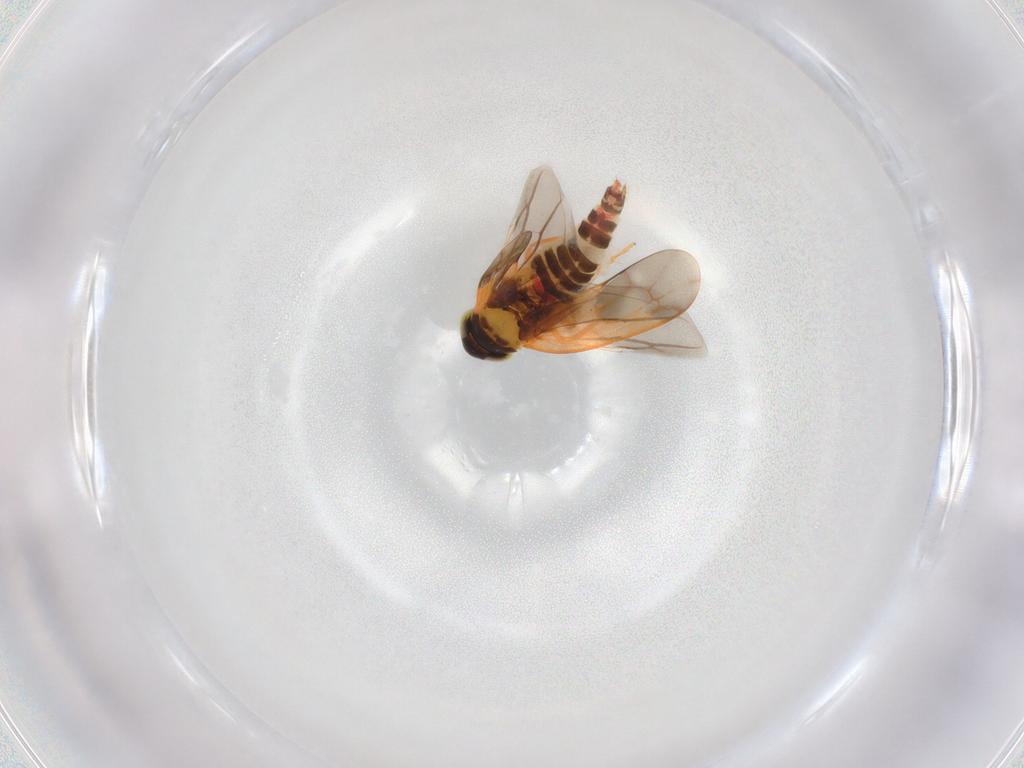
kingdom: Animalia
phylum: Arthropoda
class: Insecta
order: Hemiptera
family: Cicadellidae
